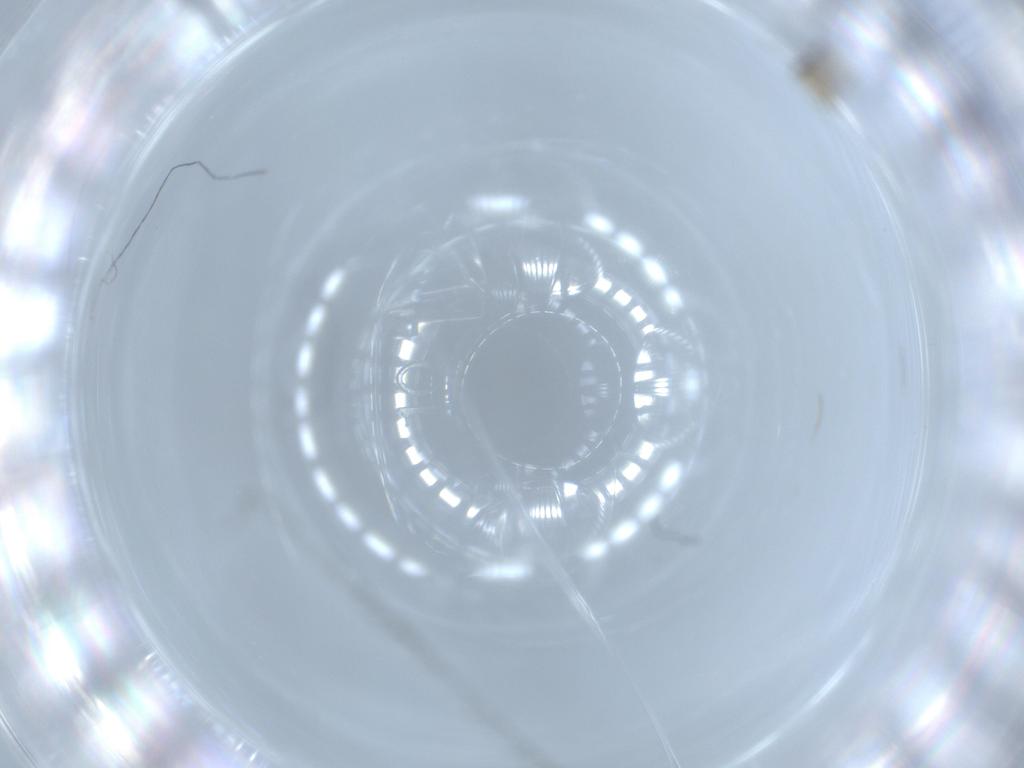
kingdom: Animalia
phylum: Arthropoda
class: Insecta
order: Hymenoptera
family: Mymaridae
